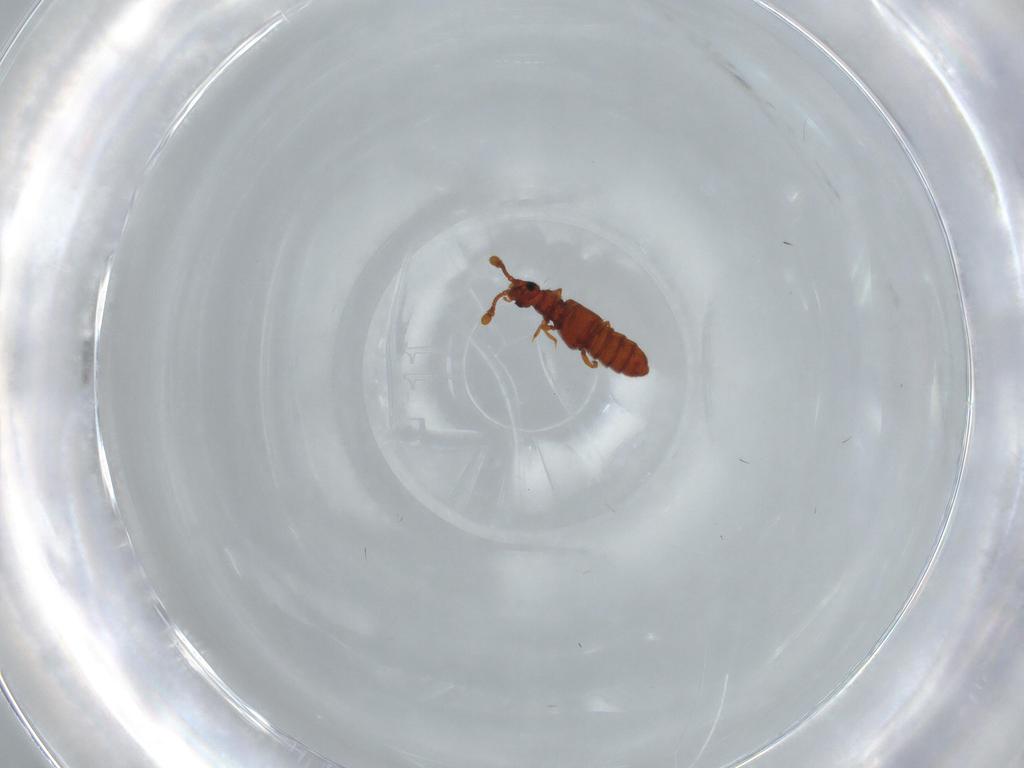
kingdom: Animalia
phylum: Arthropoda
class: Insecta
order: Coleoptera
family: Staphylinidae
